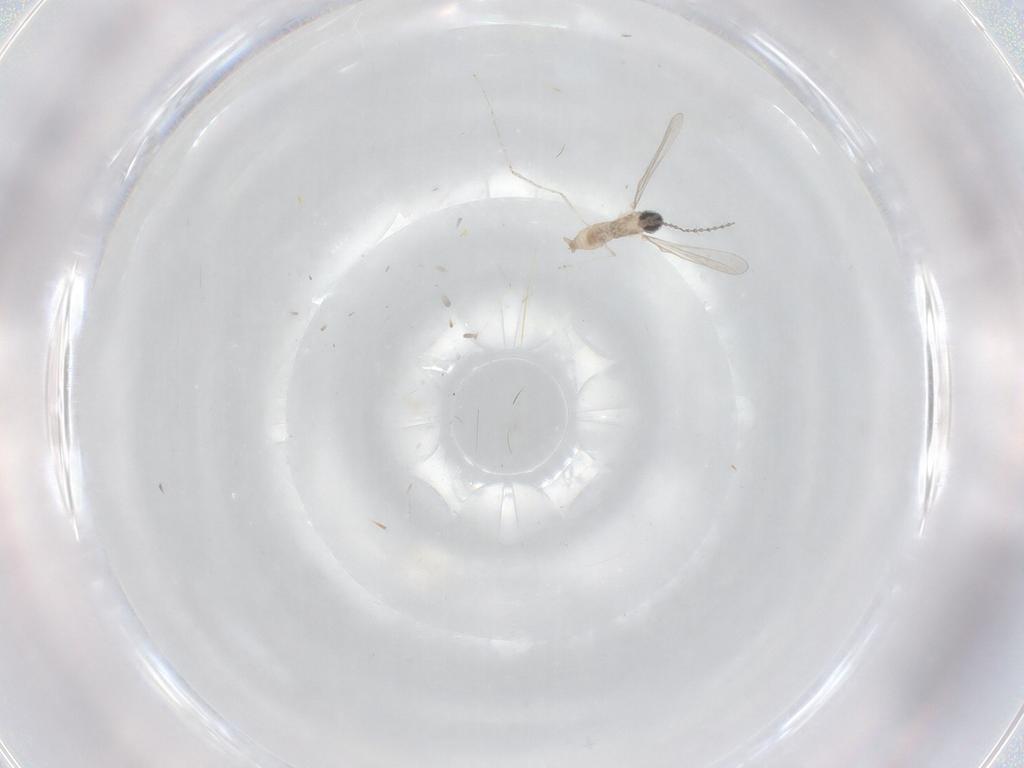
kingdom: Animalia
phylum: Arthropoda
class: Insecta
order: Diptera
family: Cecidomyiidae
